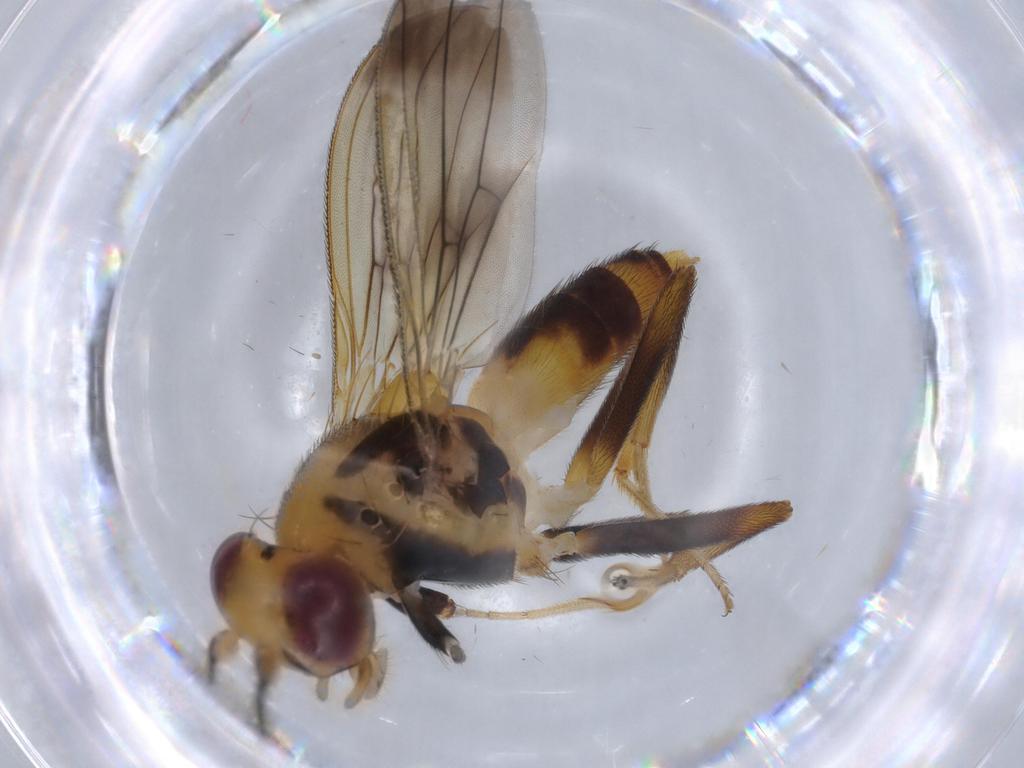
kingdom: Animalia
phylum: Arthropoda
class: Insecta
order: Diptera
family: Clusiidae
